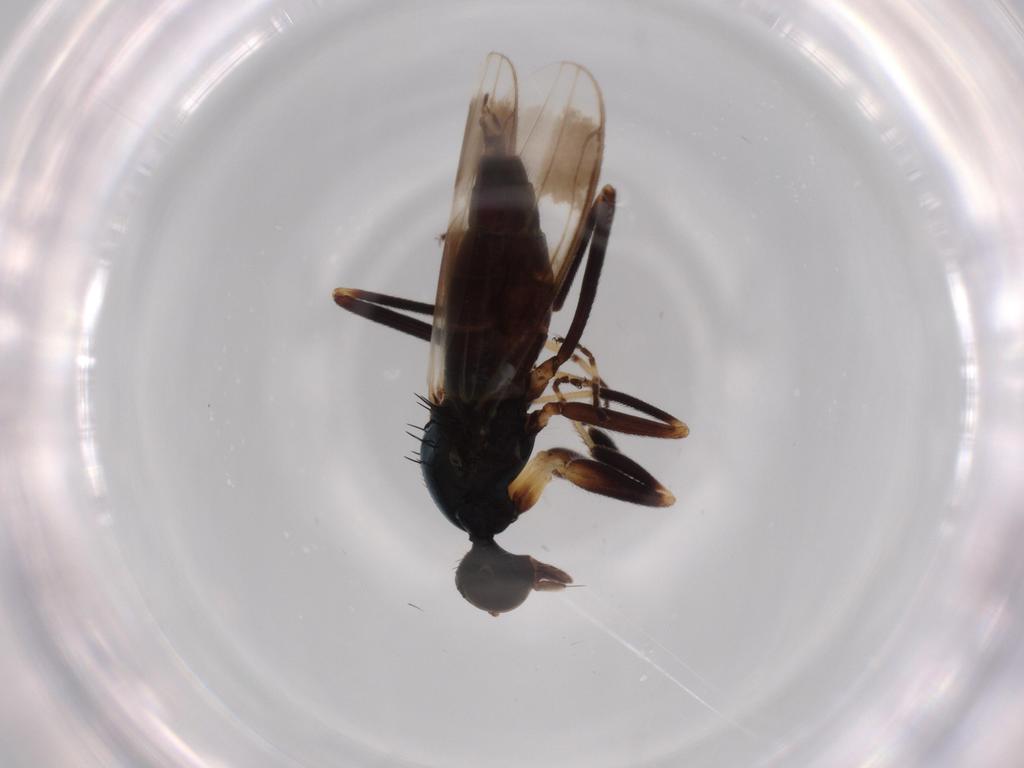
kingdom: Animalia
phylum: Arthropoda
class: Insecta
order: Diptera
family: Hybotidae
